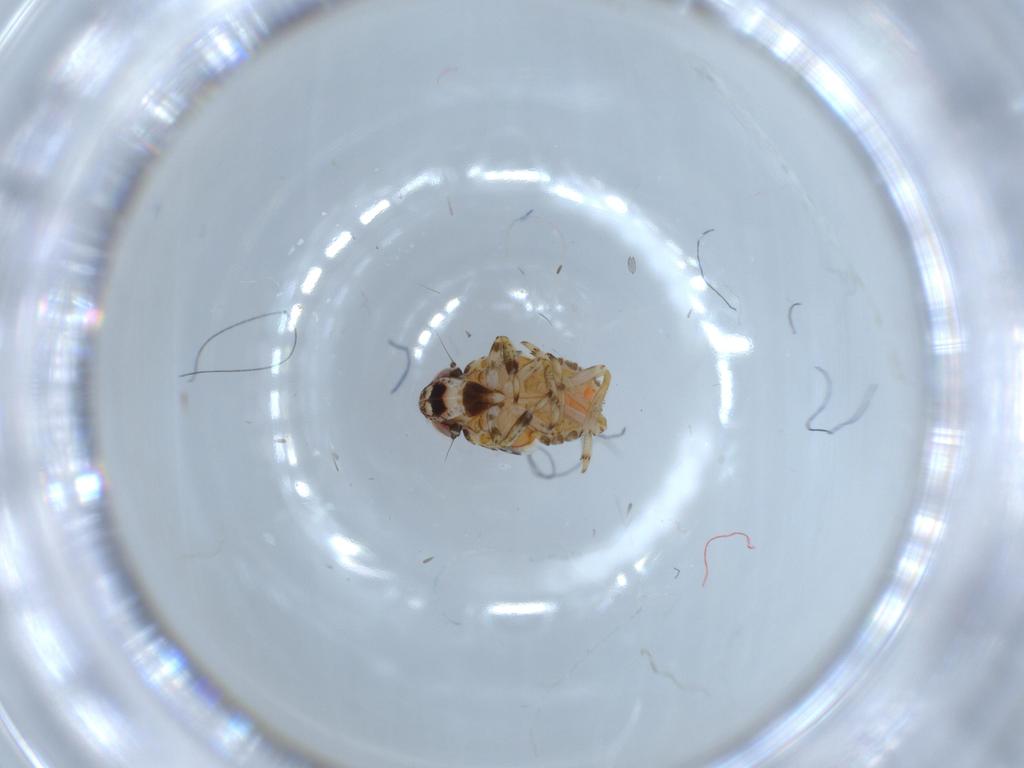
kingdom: Animalia
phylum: Arthropoda
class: Insecta
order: Hemiptera
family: Issidae
